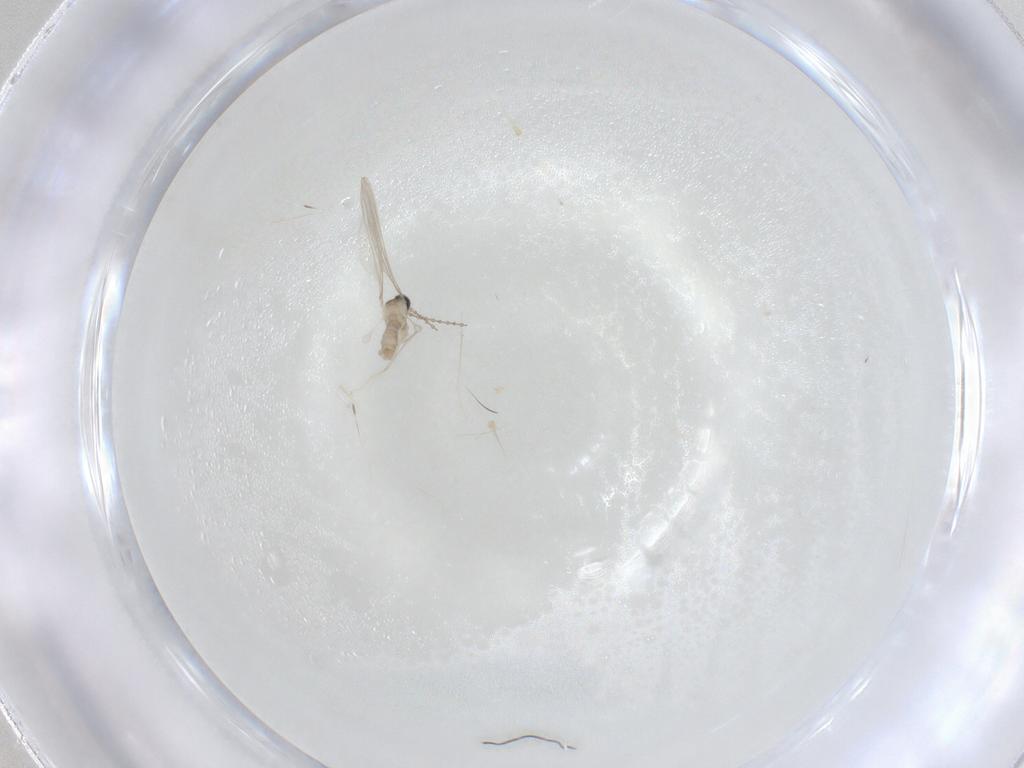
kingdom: Animalia
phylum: Arthropoda
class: Insecta
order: Diptera
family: Cecidomyiidae
